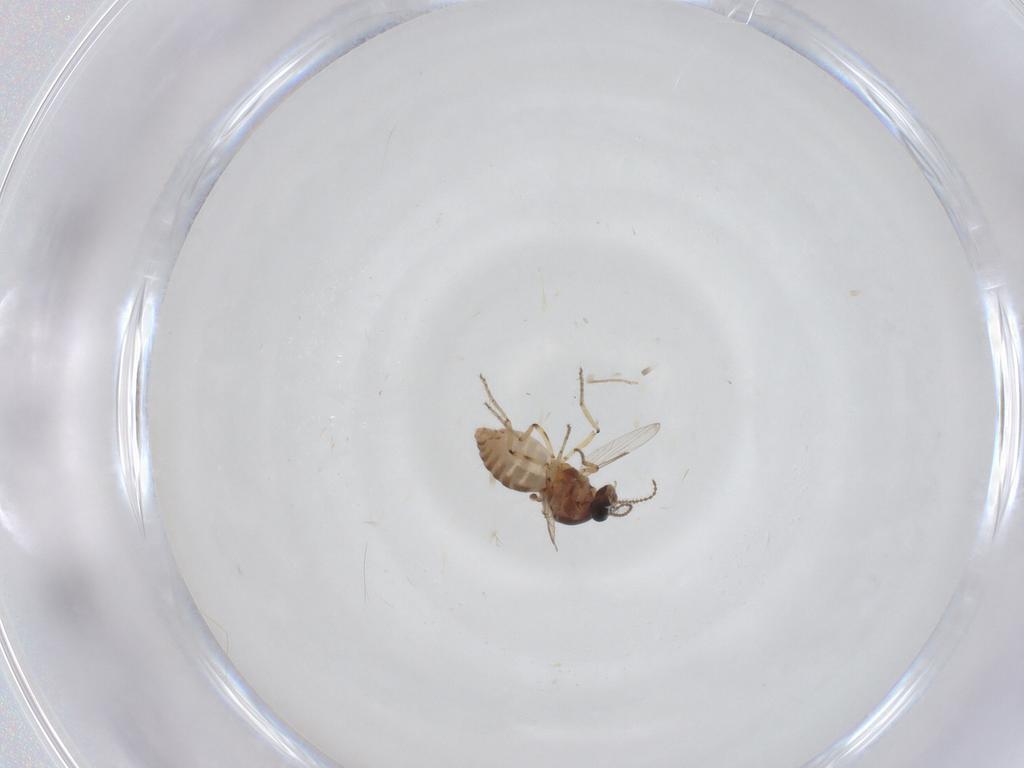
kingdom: Animalia
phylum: Arthropoda
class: Insecta
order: Diptera
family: Ceratopogonidae
